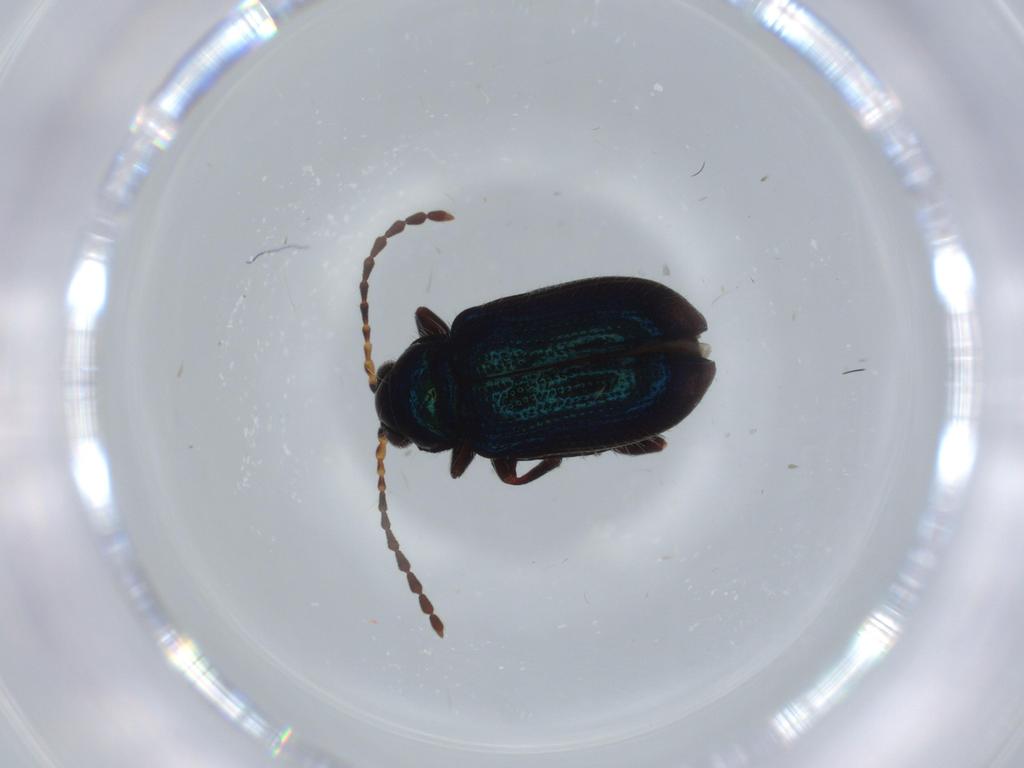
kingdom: Animalia
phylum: Arthropoda
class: Insecta
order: Coleoptera
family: Chrysomelidae
